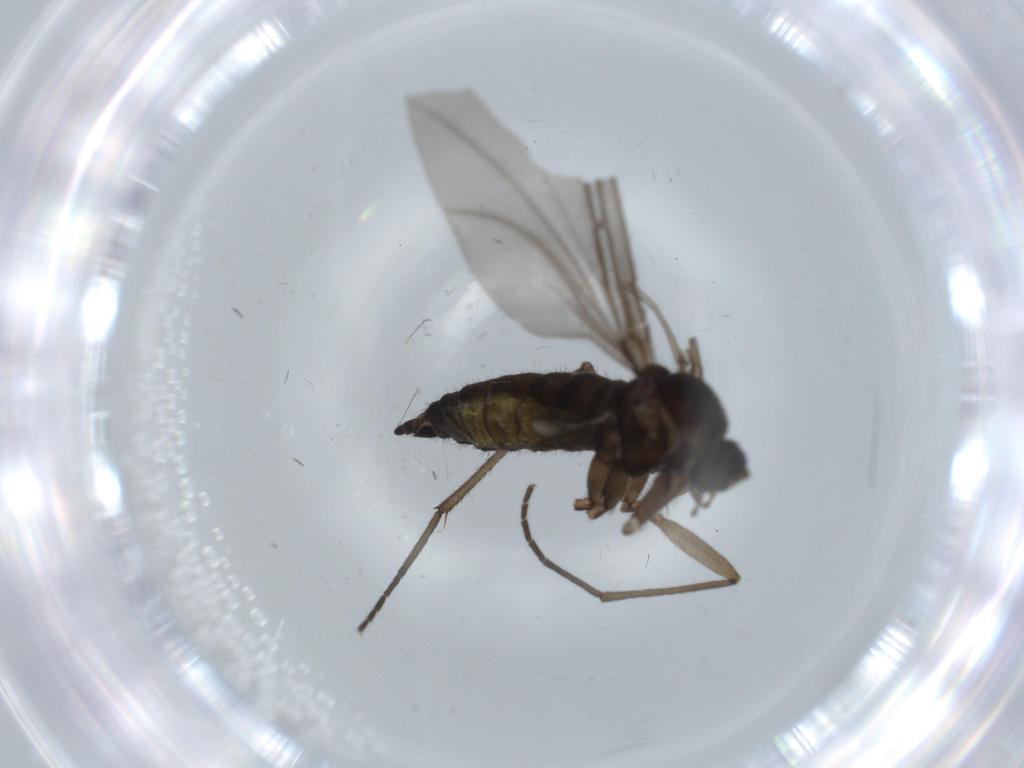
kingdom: Animalia
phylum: Arthropoda
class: Insecta
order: Diptera
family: Sciaridae
